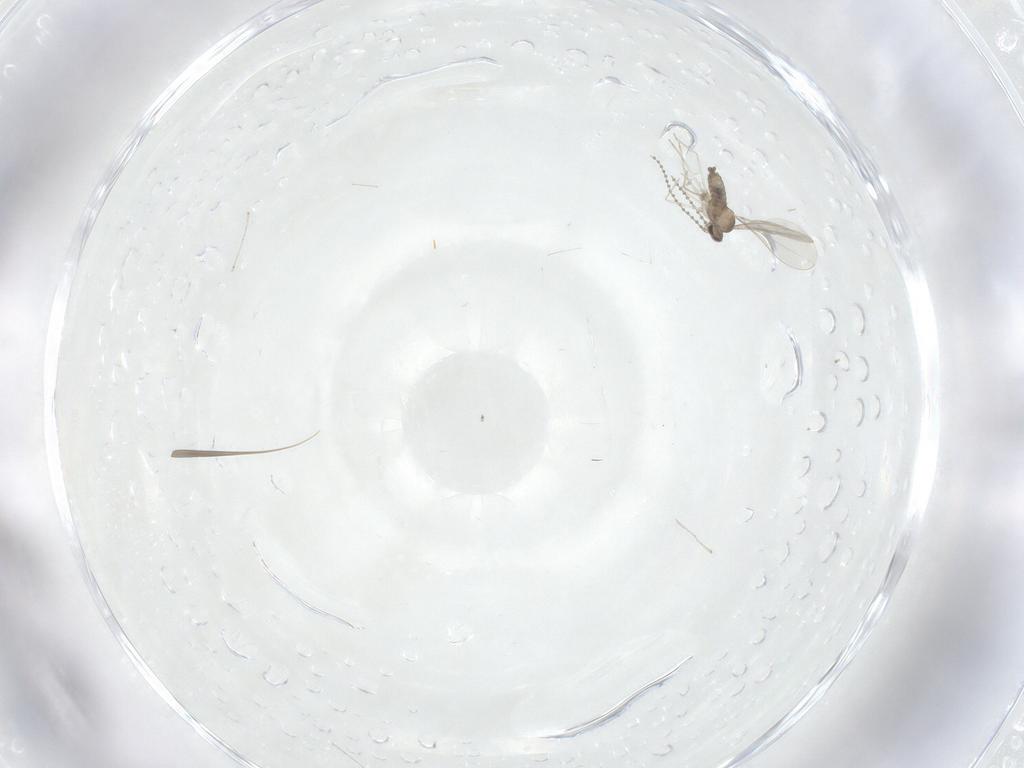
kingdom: Animalia
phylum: Arthropoda
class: Insecta
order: Diptera
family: Cecidomyiidae
